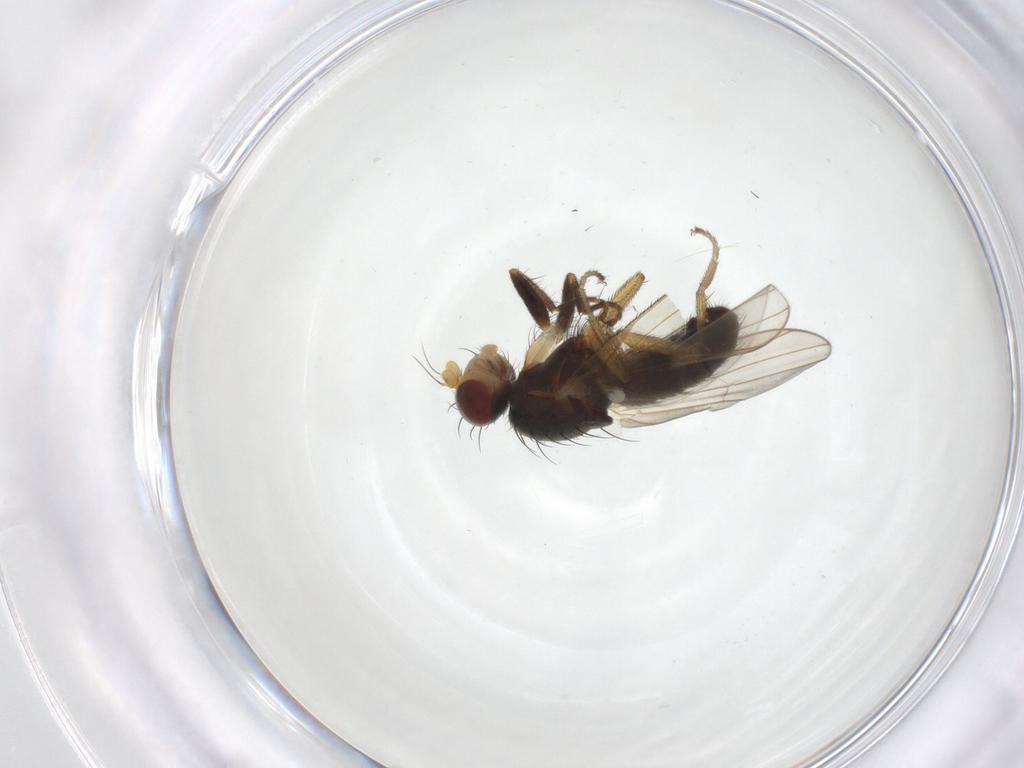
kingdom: Animalia
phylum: Arthropoda
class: Insecta
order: Diptera
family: Heleomyzidae
